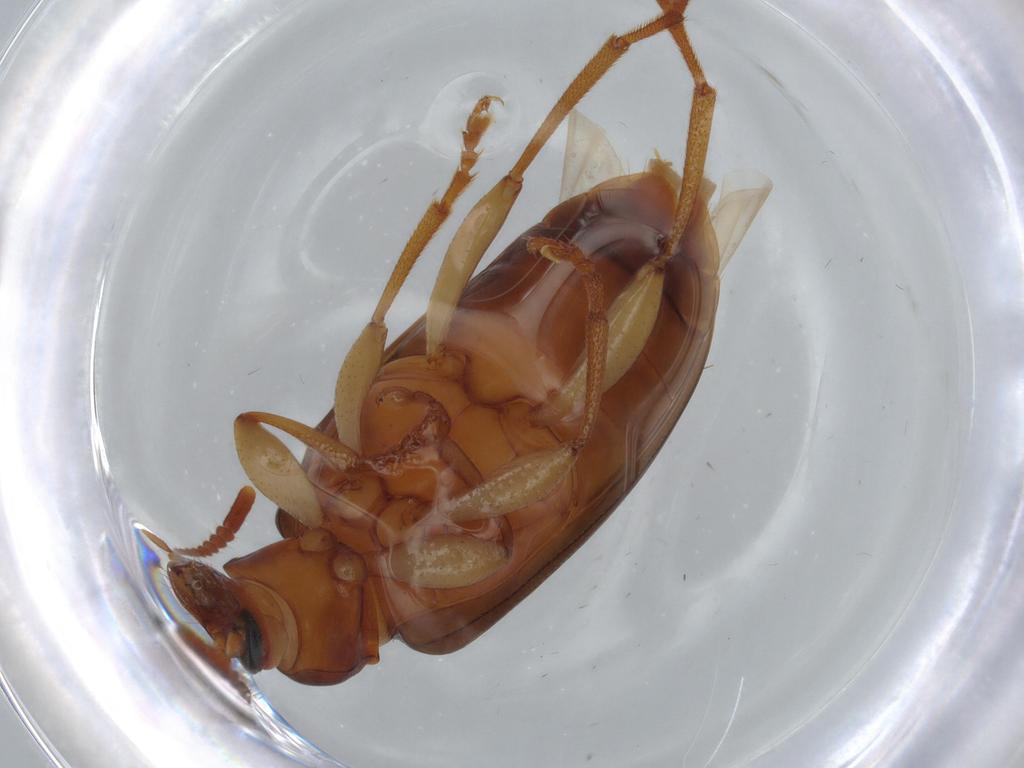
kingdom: Animalia
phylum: Arthropoda
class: Insecta
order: Coleoptera
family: Tenebrionidae
